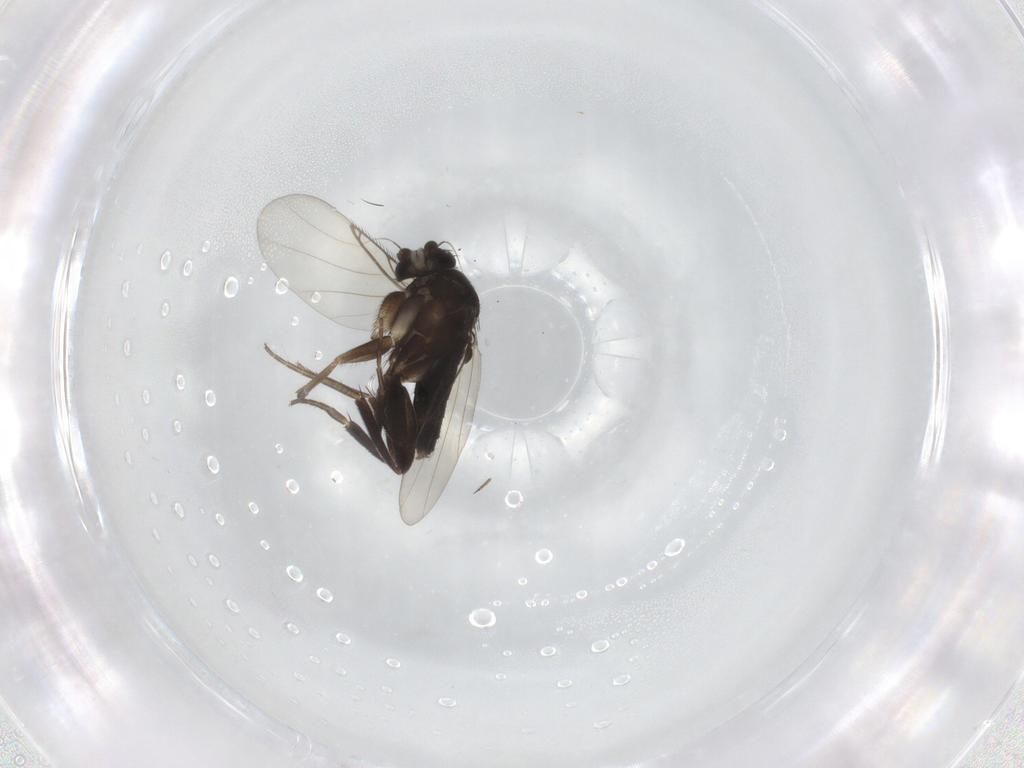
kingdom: Animalia
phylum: Arthropoda
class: Insecta
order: Diptera
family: Phoridae
